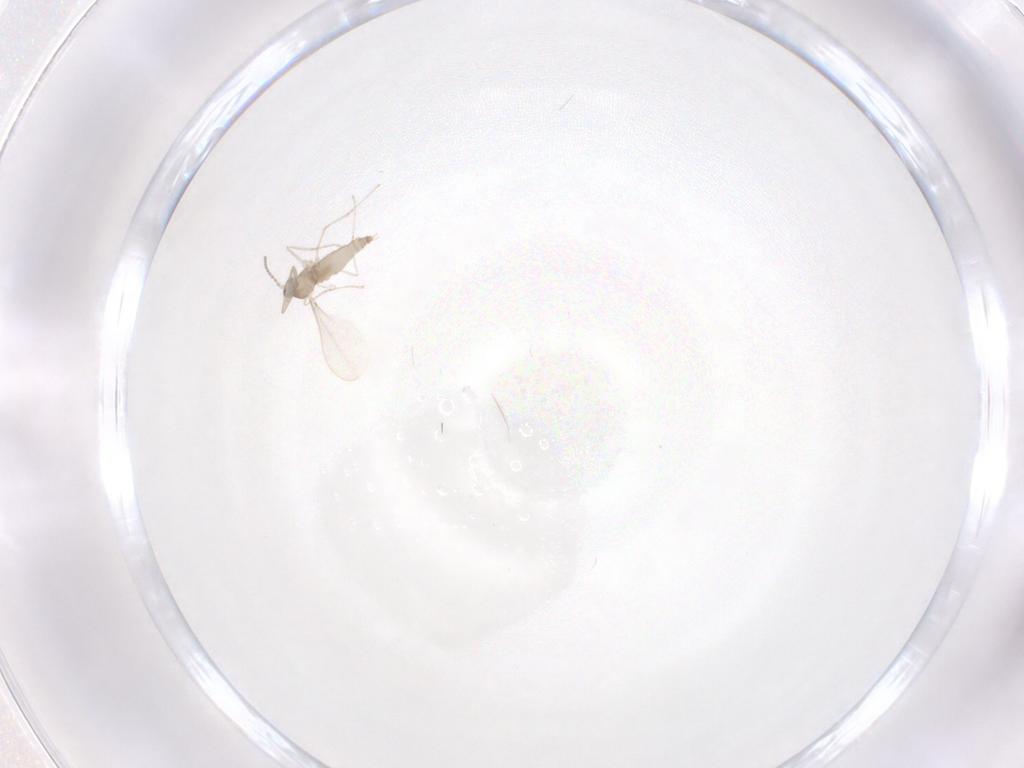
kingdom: Animalia
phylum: Arthropoda
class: Insecta
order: Diptera
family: Cecidomyiidae
